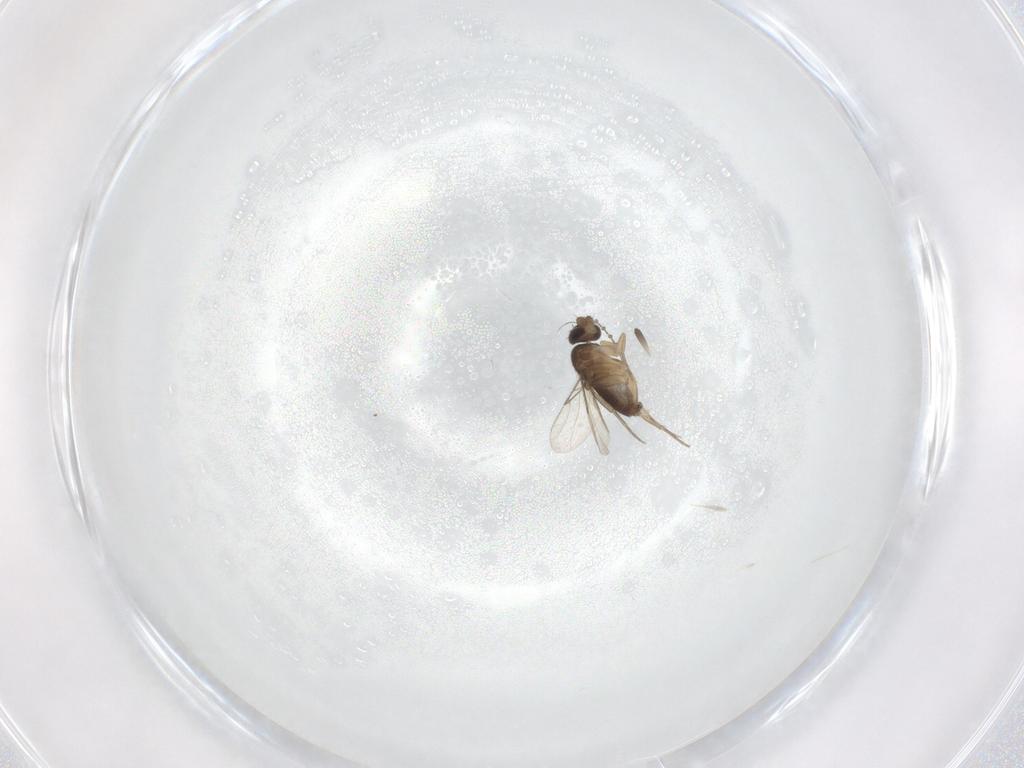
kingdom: Animalia
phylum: Arthropoda
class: Insecta
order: Diptera
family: Cecidomyiidae
